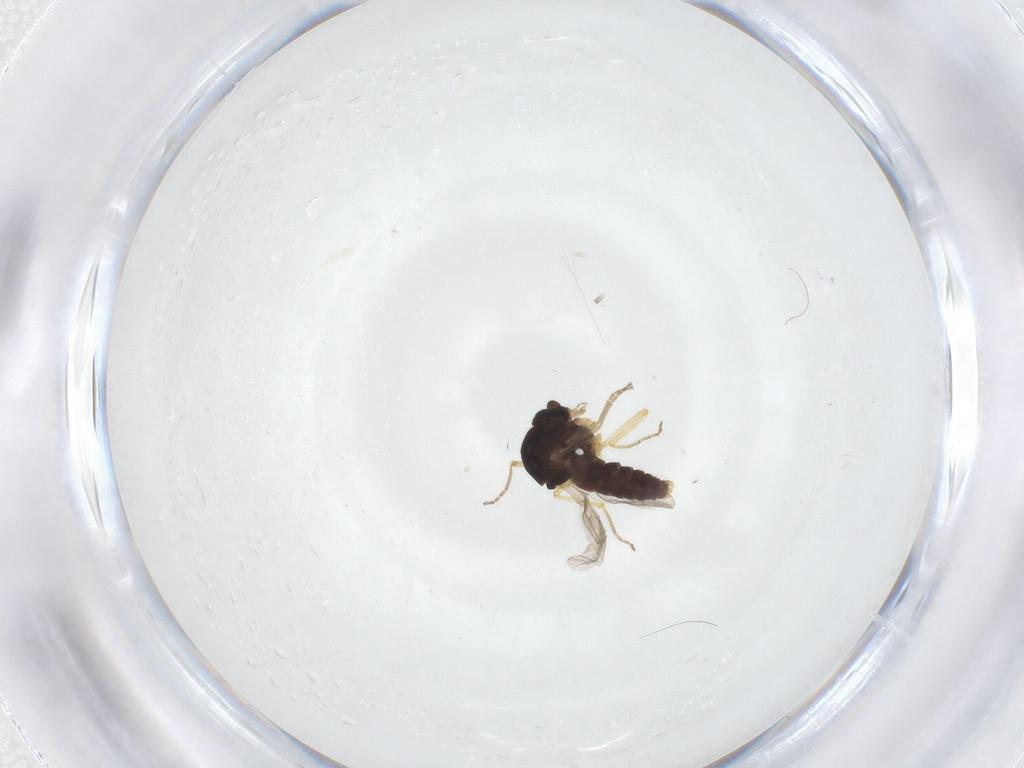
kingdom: Animalia
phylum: Arthropoda
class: Insecta
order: Diptera
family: Ceratopogonidae
